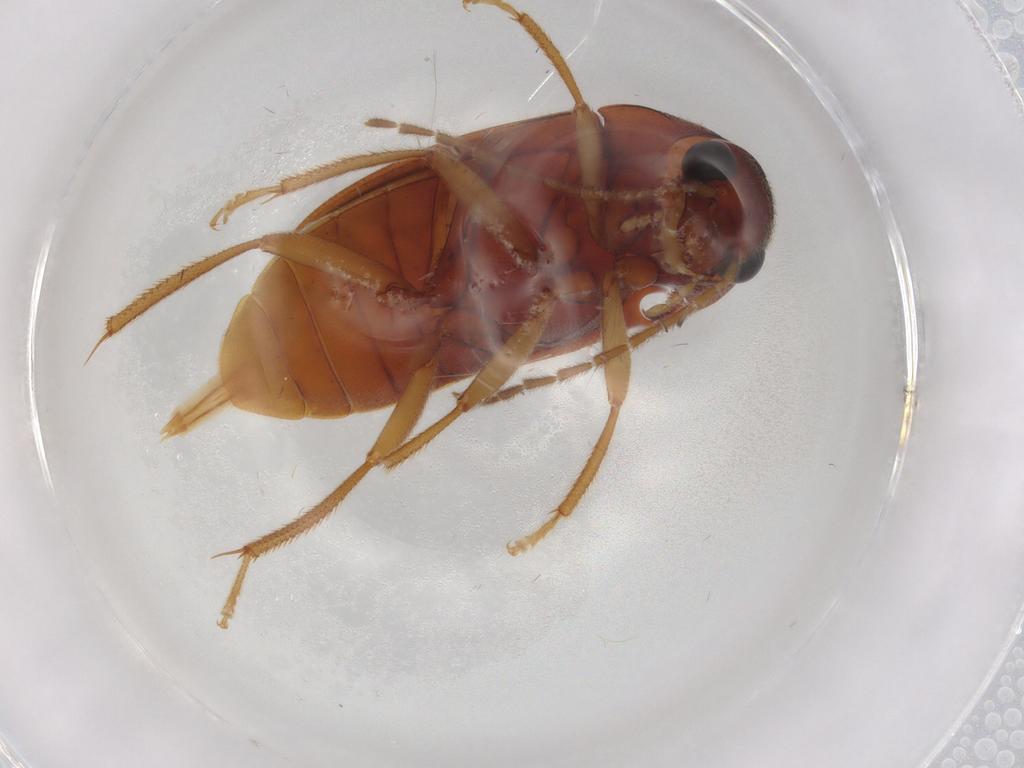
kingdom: Animalia
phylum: Arthropoda
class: Insecta
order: Coleoptera
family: Ptilodactylidae
